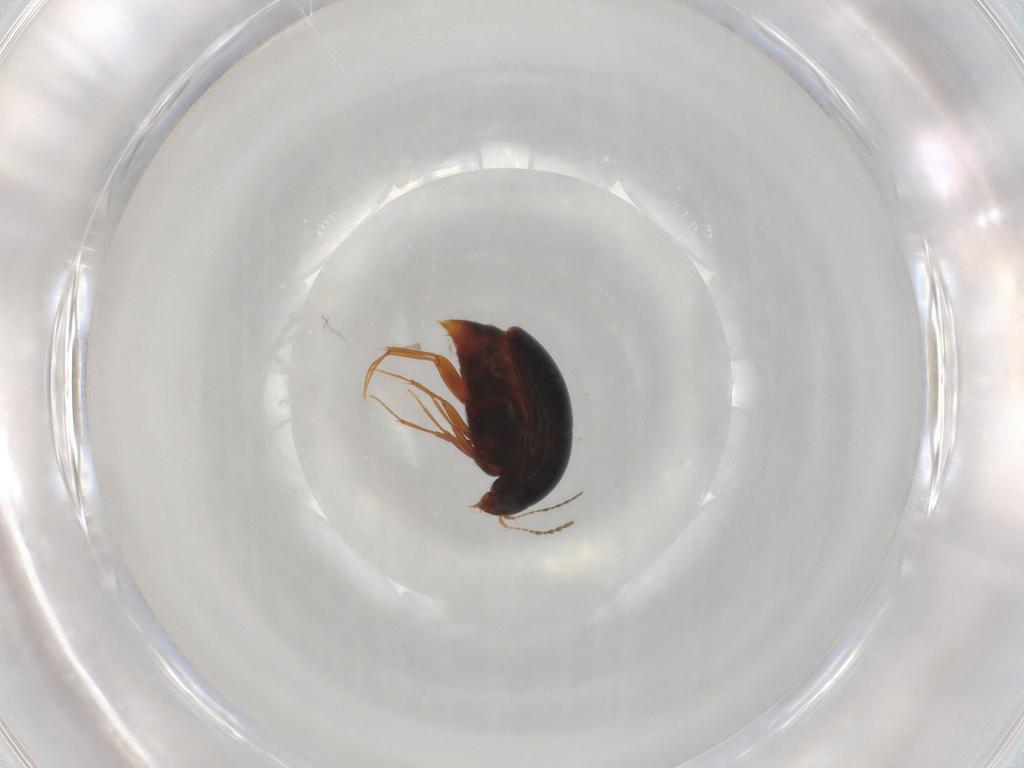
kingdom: Animalia
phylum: Arthropoda
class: Insecta
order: Coleoptera
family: Staphylinidae
